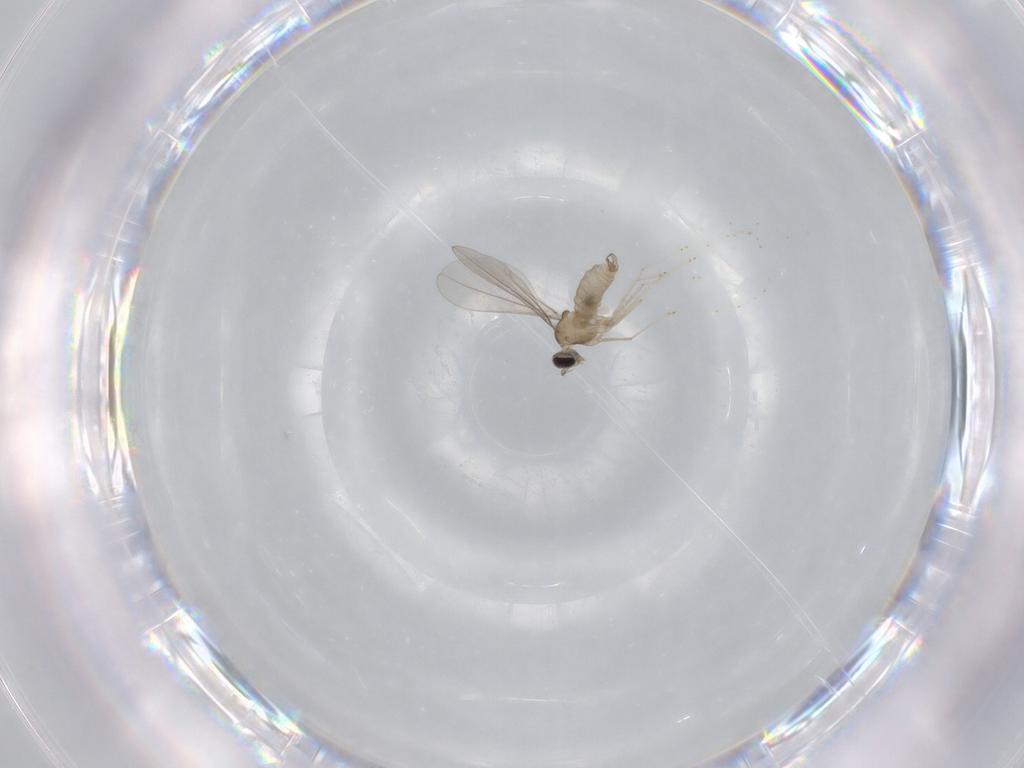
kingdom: Animalia
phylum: Arthropoda
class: Insecta
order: Diptera
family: Cecidomyiidae
